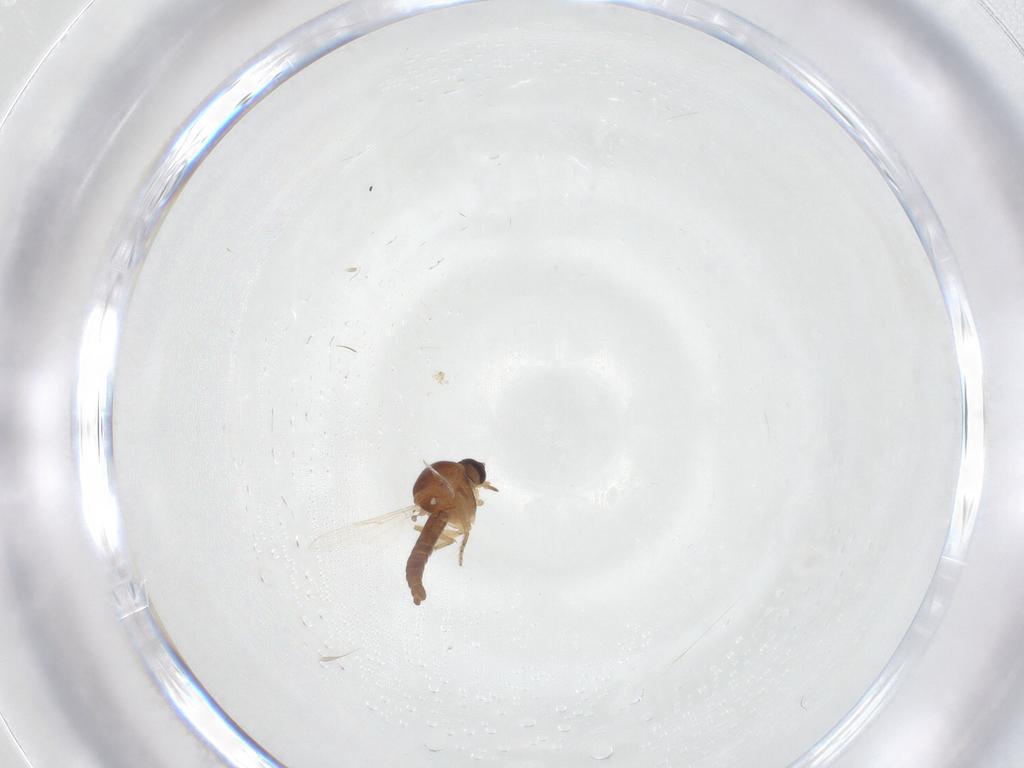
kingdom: Animalia
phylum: Arthropoda
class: Insecta
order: Diptera
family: Ceratopogonidae
